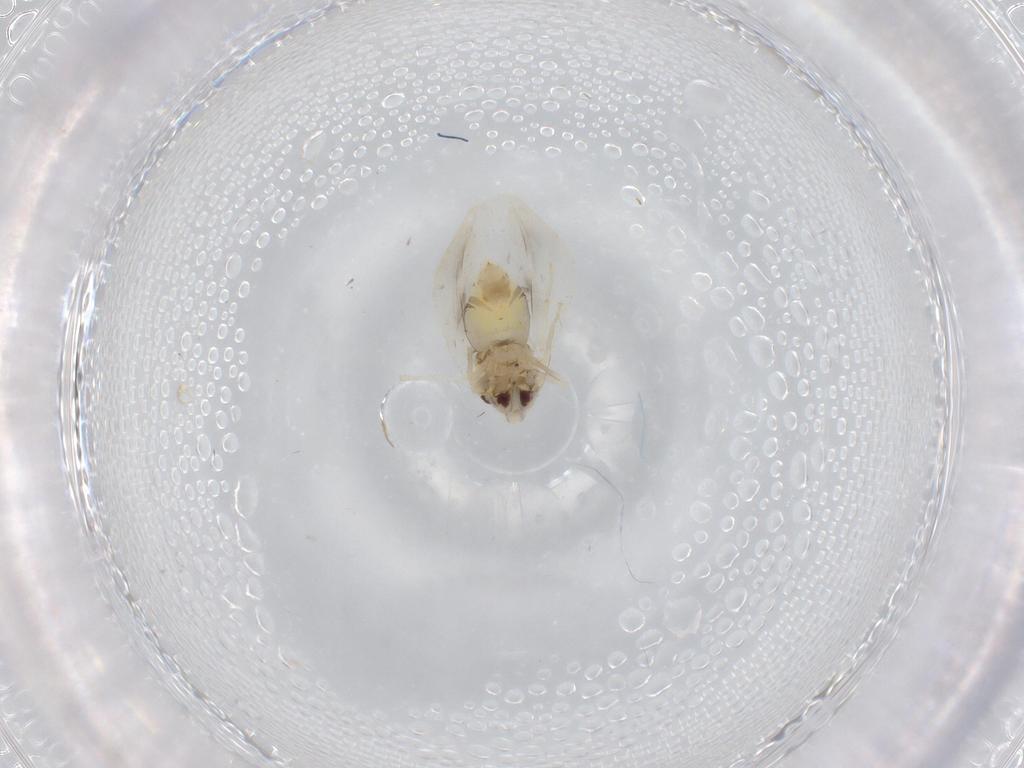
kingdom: Animalia
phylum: Arthropoda
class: Insecta
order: Hemiptera
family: Aleyrodidae
